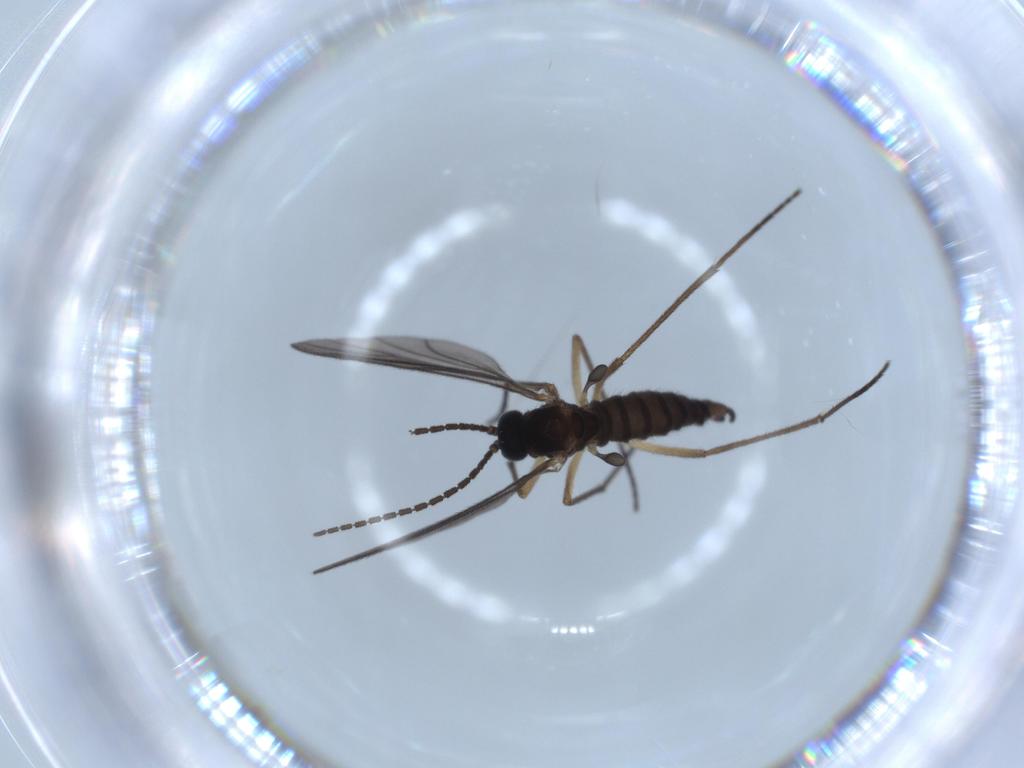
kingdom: Animalia
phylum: Arthropoda
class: Insecta
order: Diptera
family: Sciaridae
